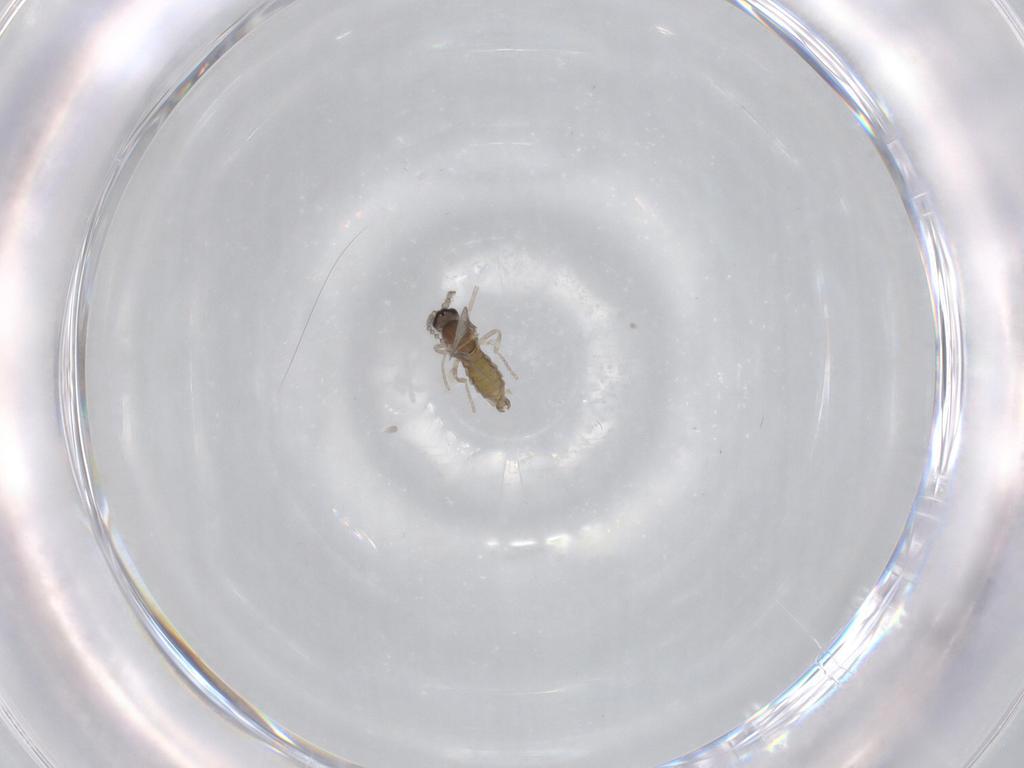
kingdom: Animalia
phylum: Arthropoda
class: Insecta
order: Diptera
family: Cecidomyiidae
